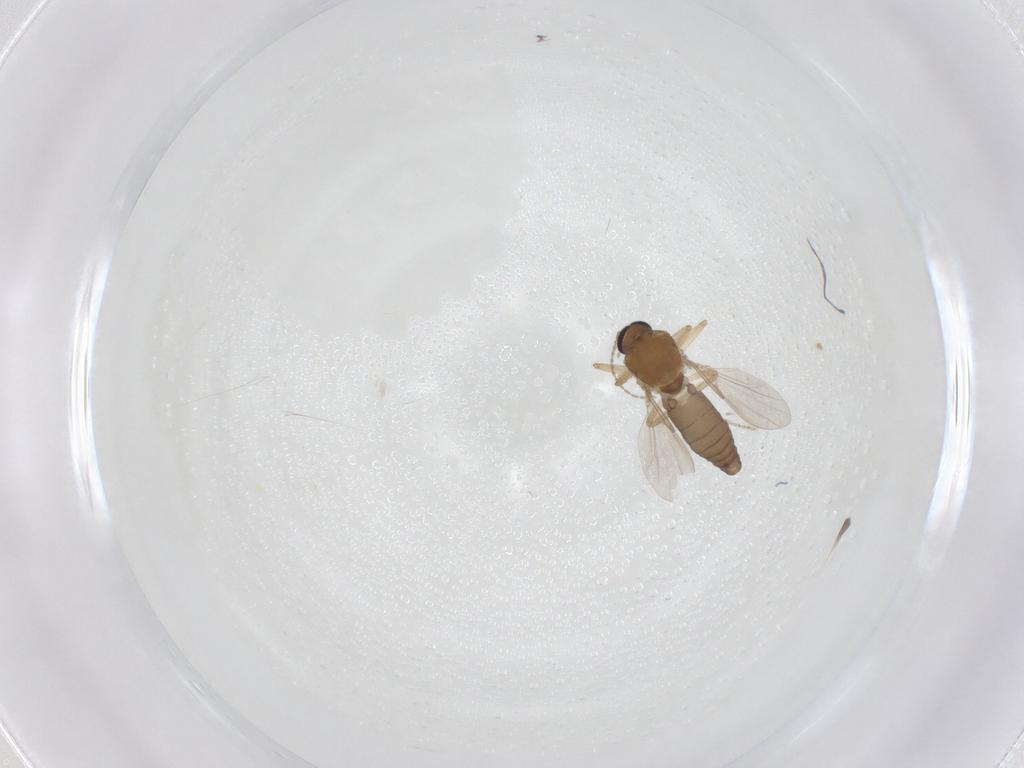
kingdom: Animalia
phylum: Arthropoda
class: Insecta
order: Diptera
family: Ceratopogonidae
